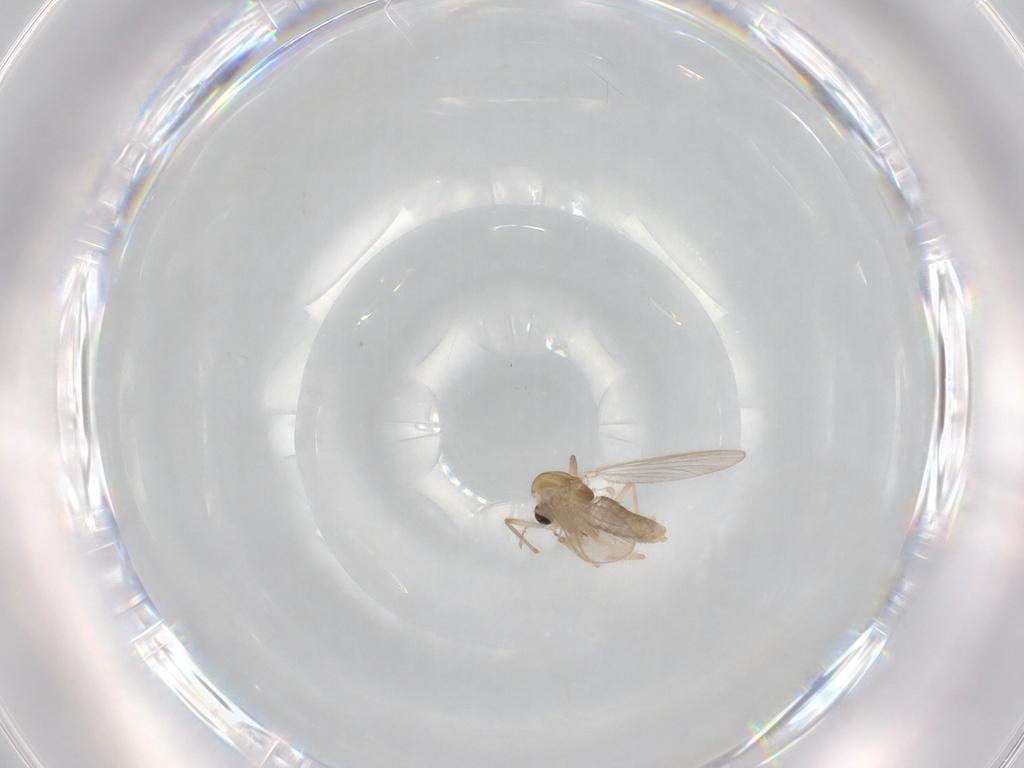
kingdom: Animalia
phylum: Arthropoda
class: Insecta
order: Diptera
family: Chironomidae
